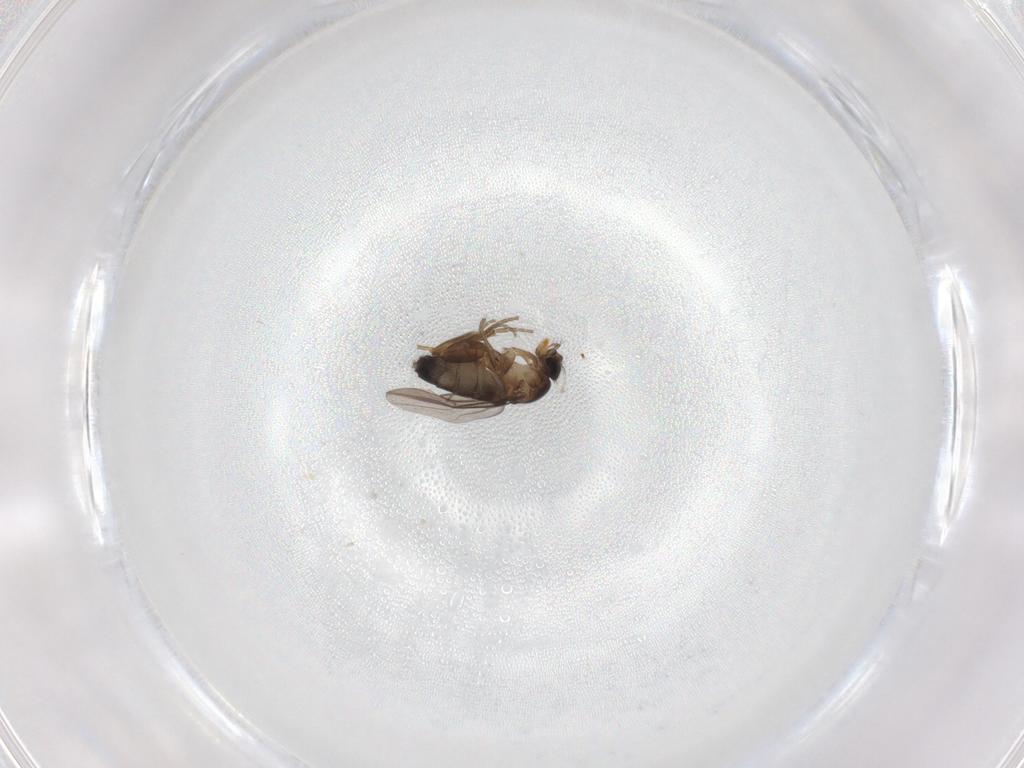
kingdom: Animalia
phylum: Arthropoda
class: Insecta
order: Diptera
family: Phoridae
